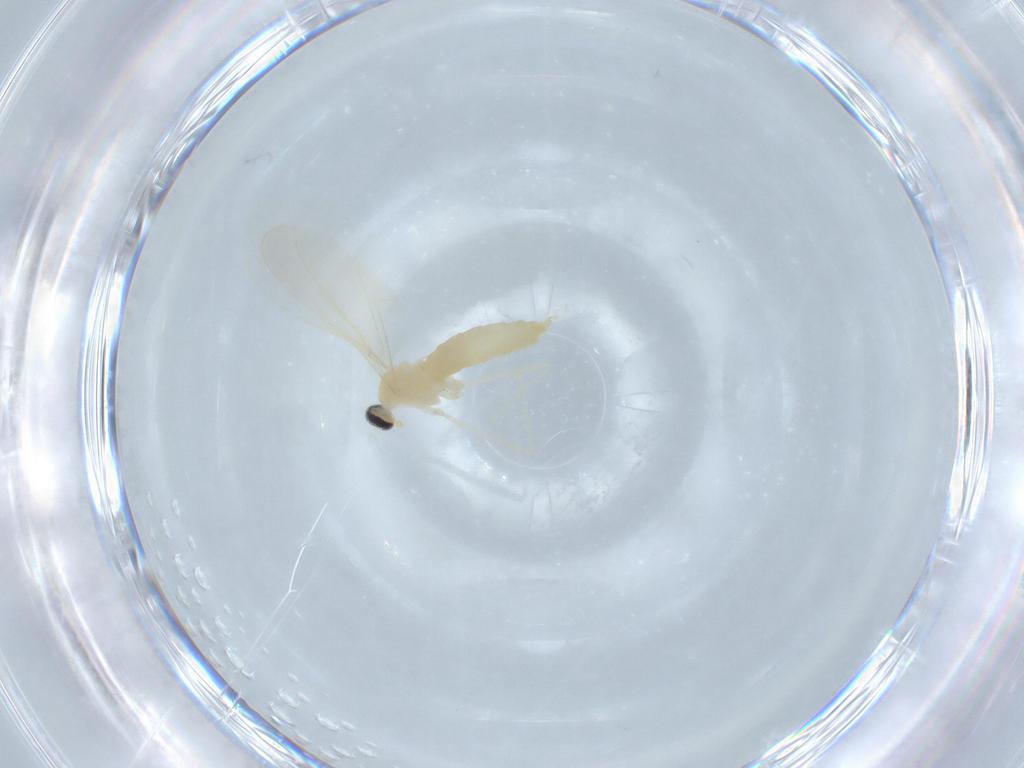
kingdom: Animalia
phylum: Arthropoda
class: Insecta
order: Diptera
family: Cecidomyiidae
